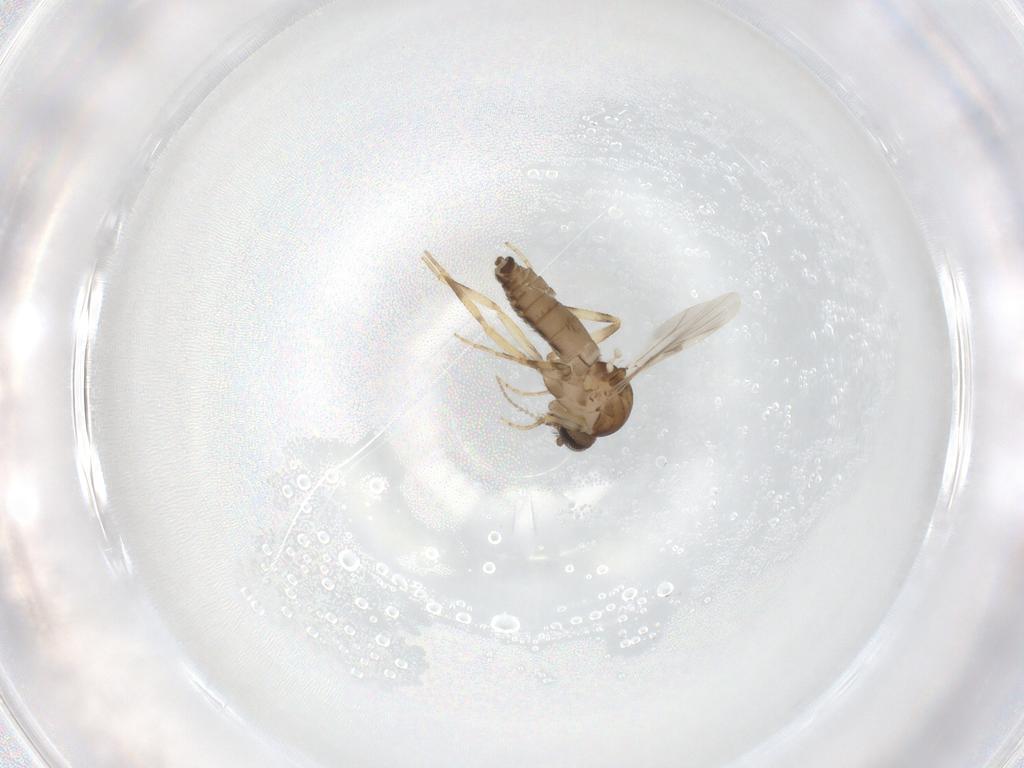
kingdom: Animalia
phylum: Arthropoda
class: Insecta
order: Diptera
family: Ceratopogonidae
